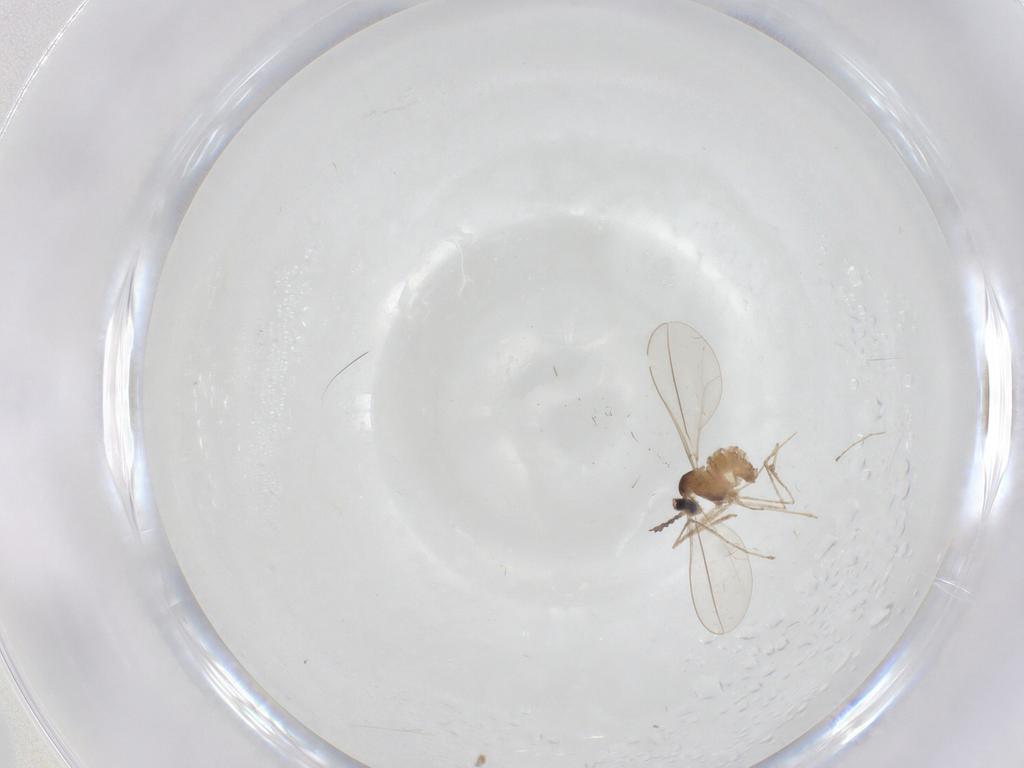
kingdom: Animalia
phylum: Arthropoda
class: Insecta
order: Diptera
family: Cecidomyiidae
